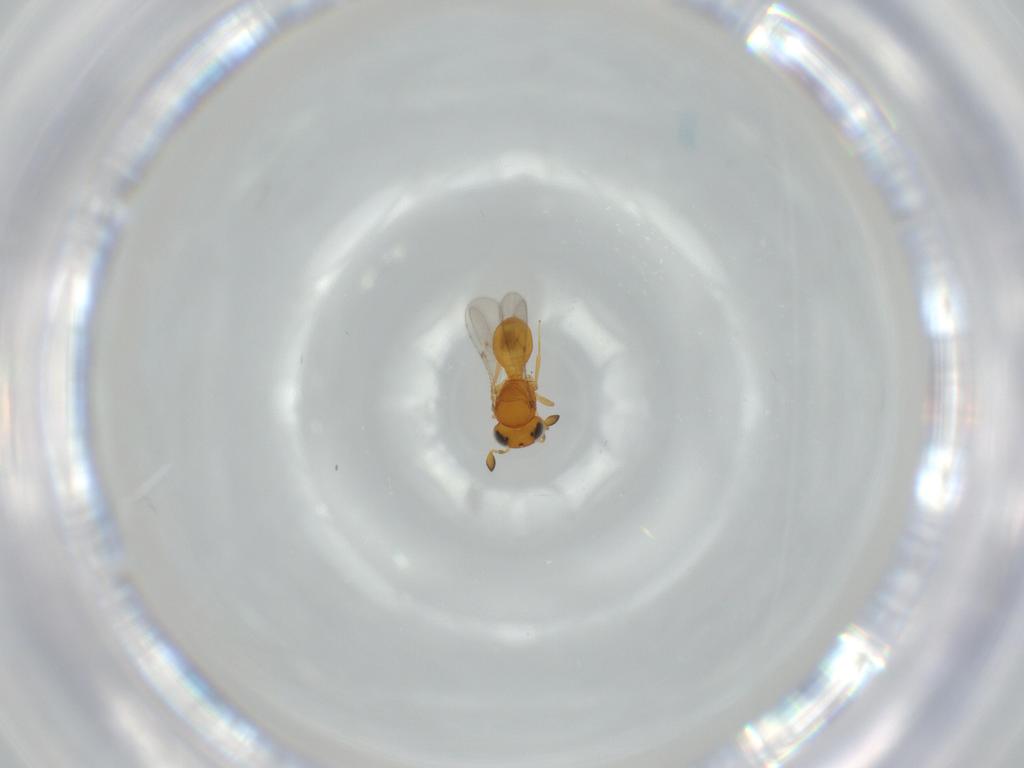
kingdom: Animalia
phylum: Arthropoda
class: Insecta
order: Hymenoptera
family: Scelionidae
